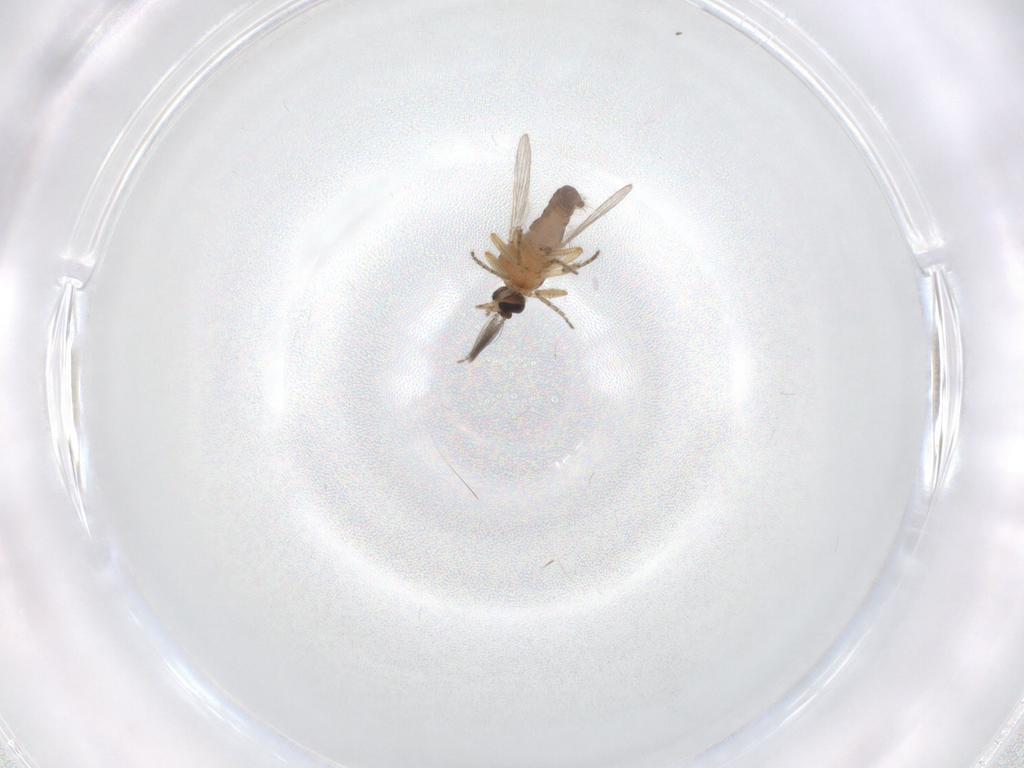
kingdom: Animalia
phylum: Arthropoda
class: Insecta
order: Diptera
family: Ceratopogonidae
